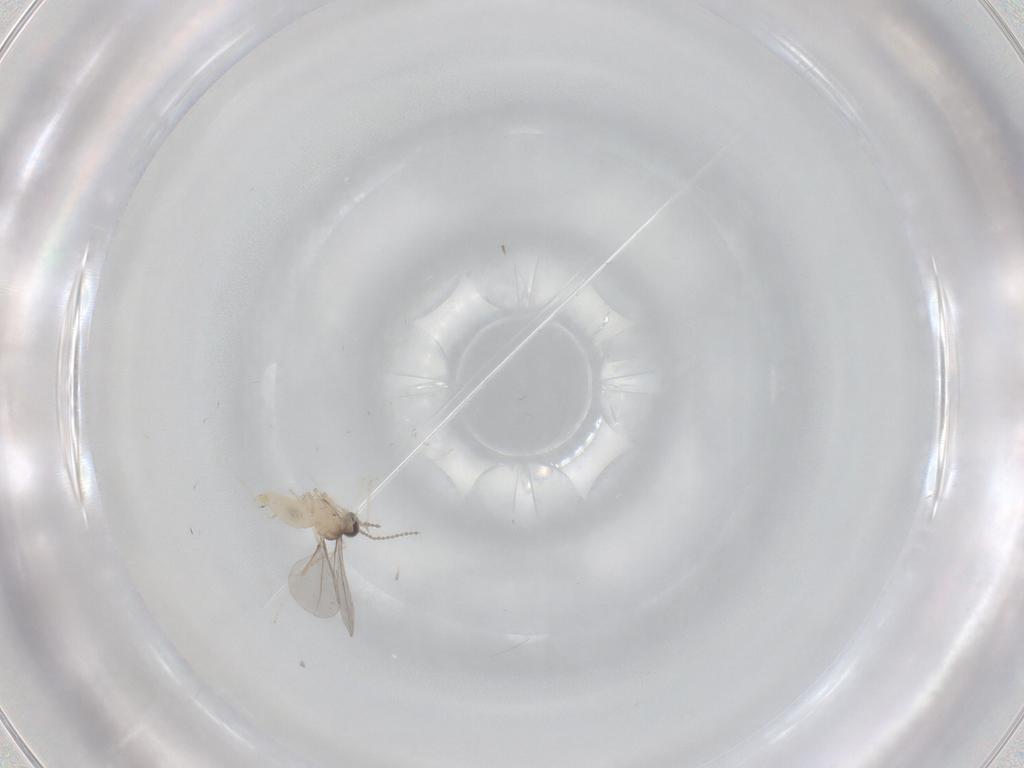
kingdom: Animalia
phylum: Arthropoda
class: Insecta
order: Diptera
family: Cecidomyiidae
